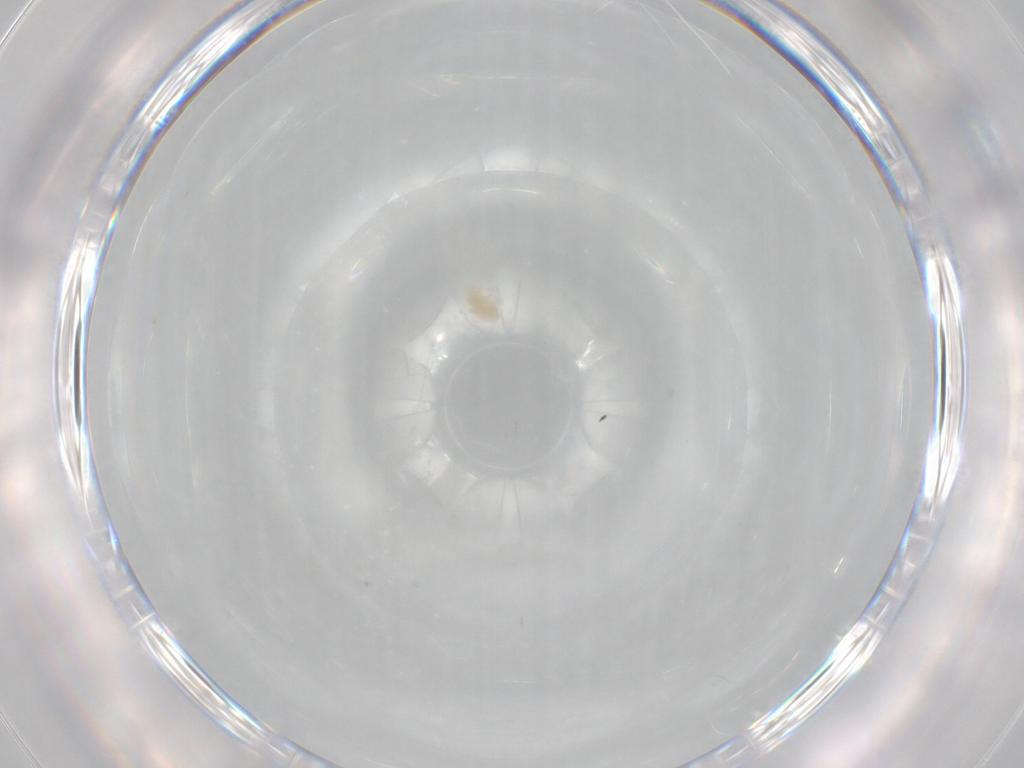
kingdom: Animalia
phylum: Arthropoda
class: Arachnida
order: Trombidiformes
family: Eupodidae
